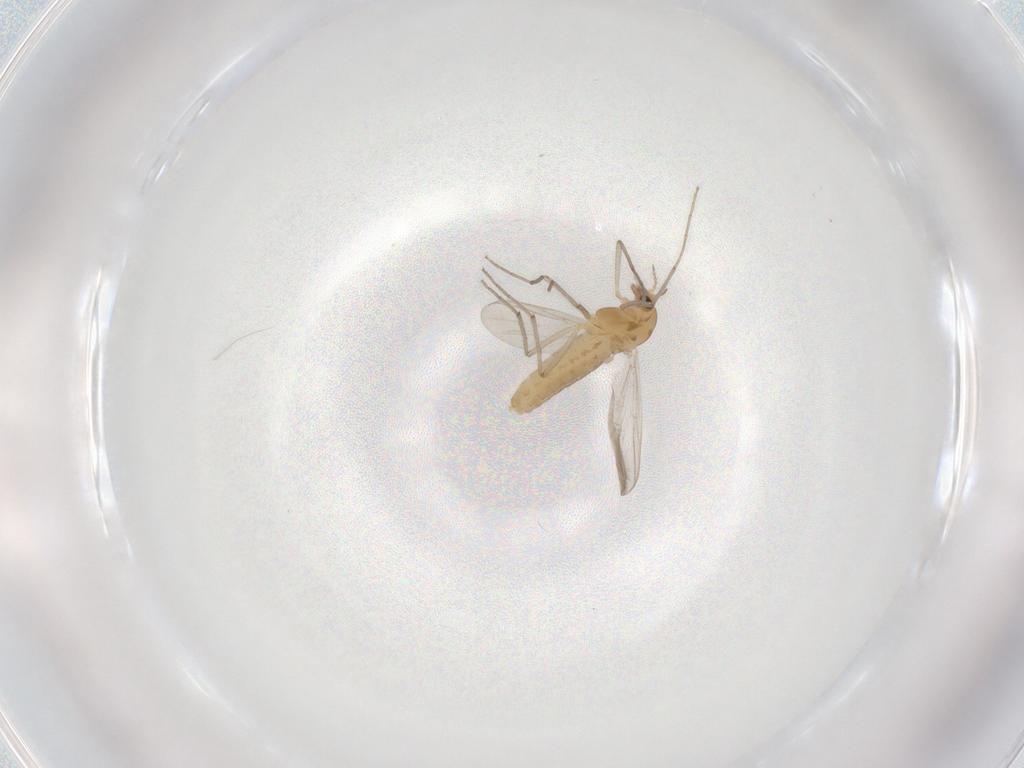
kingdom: Animalia
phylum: Arthropoda
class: Insecta
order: Diptera
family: Chironomidae
